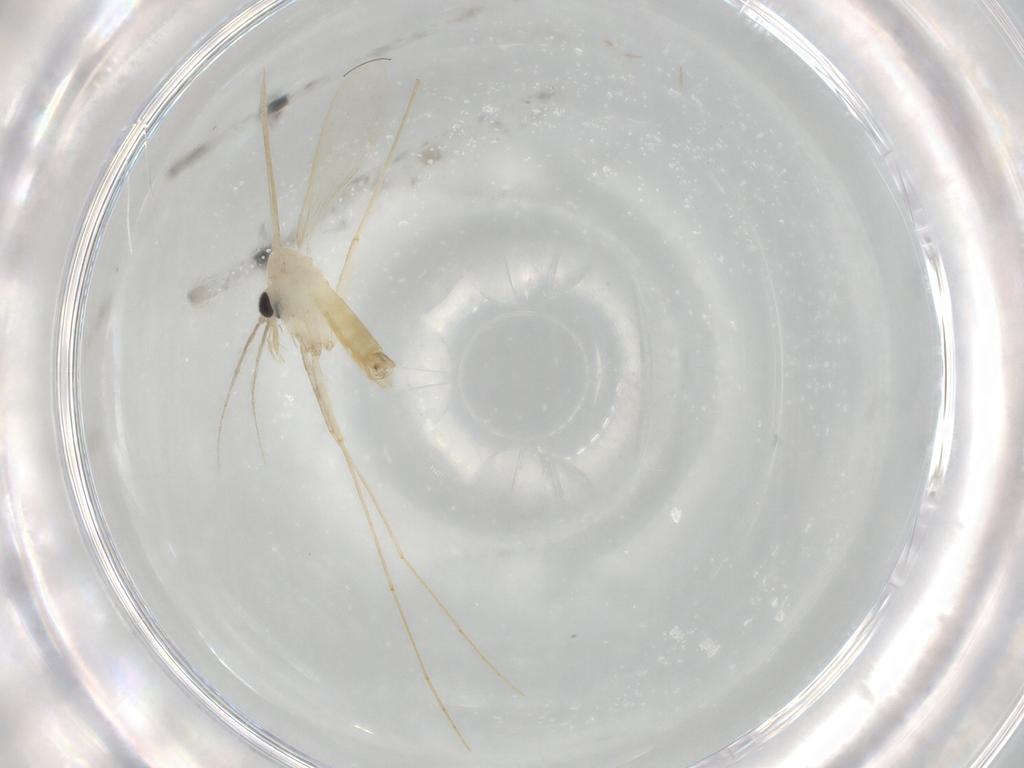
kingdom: Animalia
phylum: Arthropoda
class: Insecta
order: Diptera
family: Psychodidae
